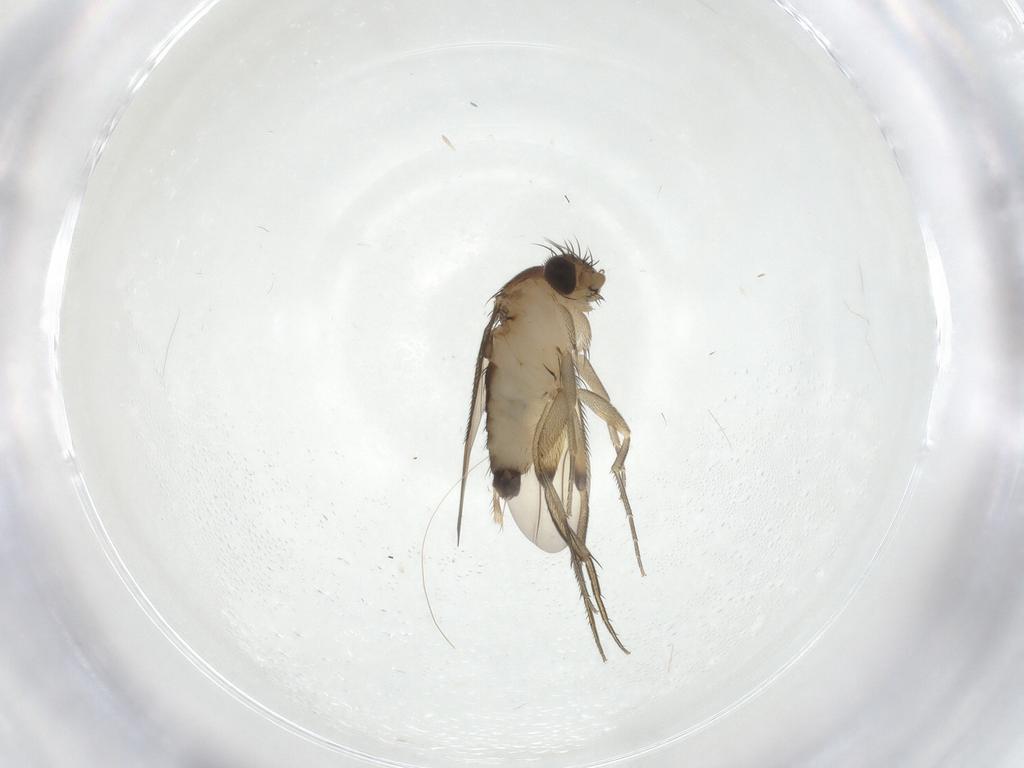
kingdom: Animalia
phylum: Arthropoda
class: Insecta
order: Diptera
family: Phoridae
